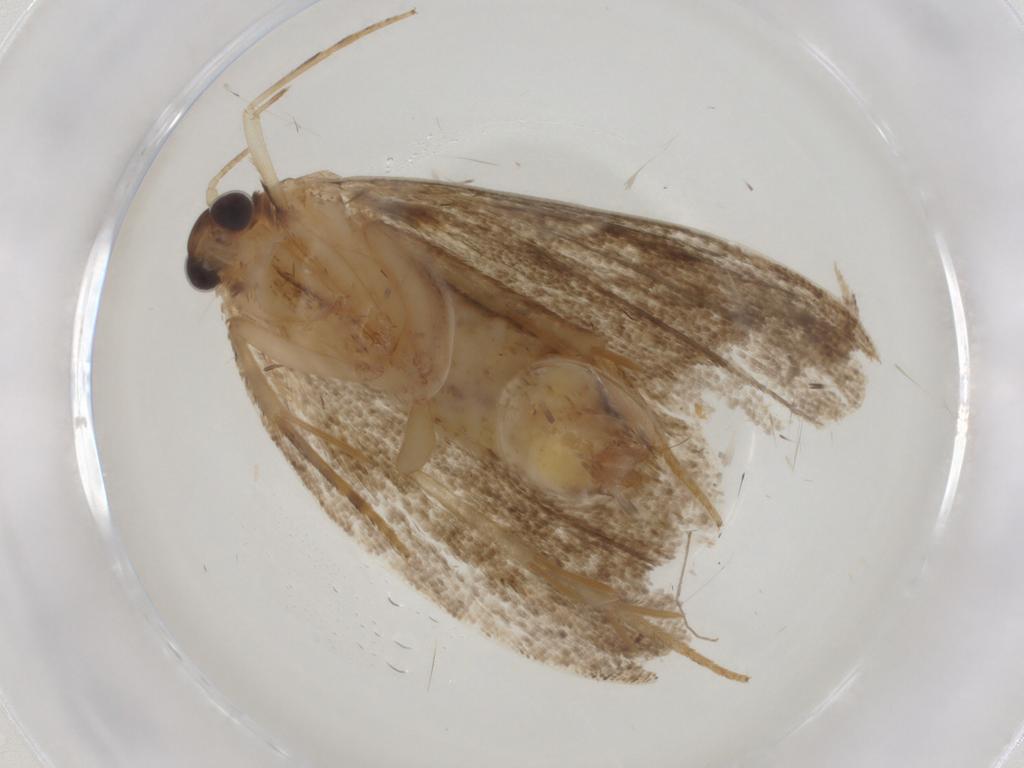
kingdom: Animalia
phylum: Arthropoda
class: Insecta
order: Lepidoptera
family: Tortricidae
